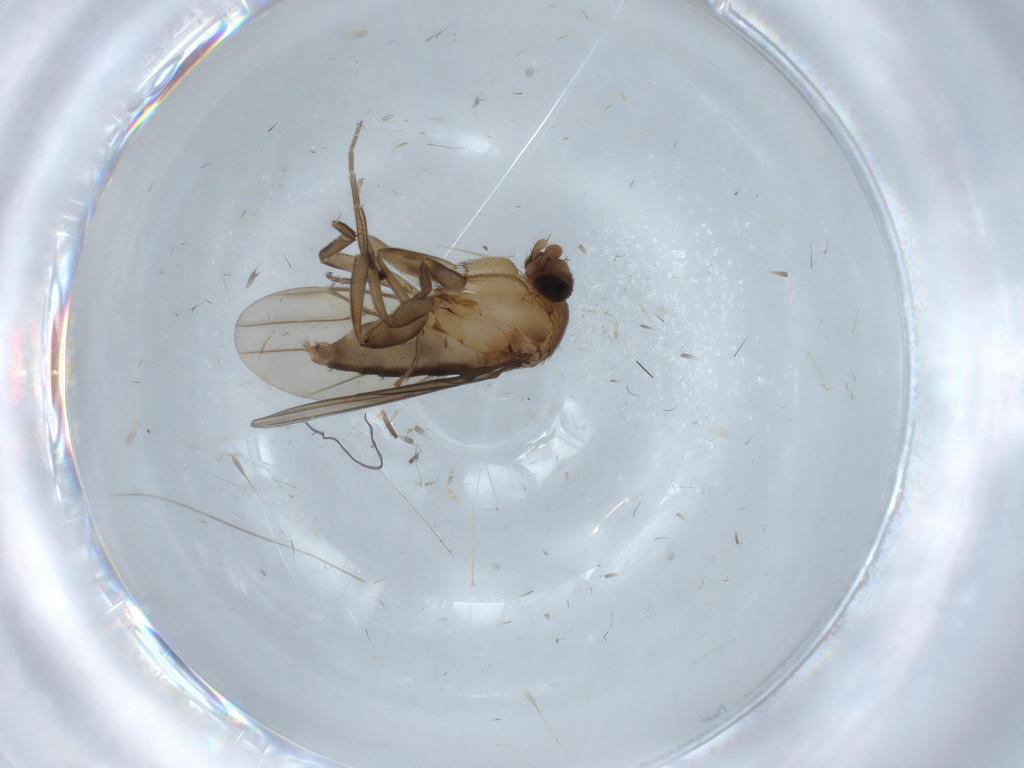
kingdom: Animalia
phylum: Arthropoda
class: Insecta
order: Diptera
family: Phoridae
